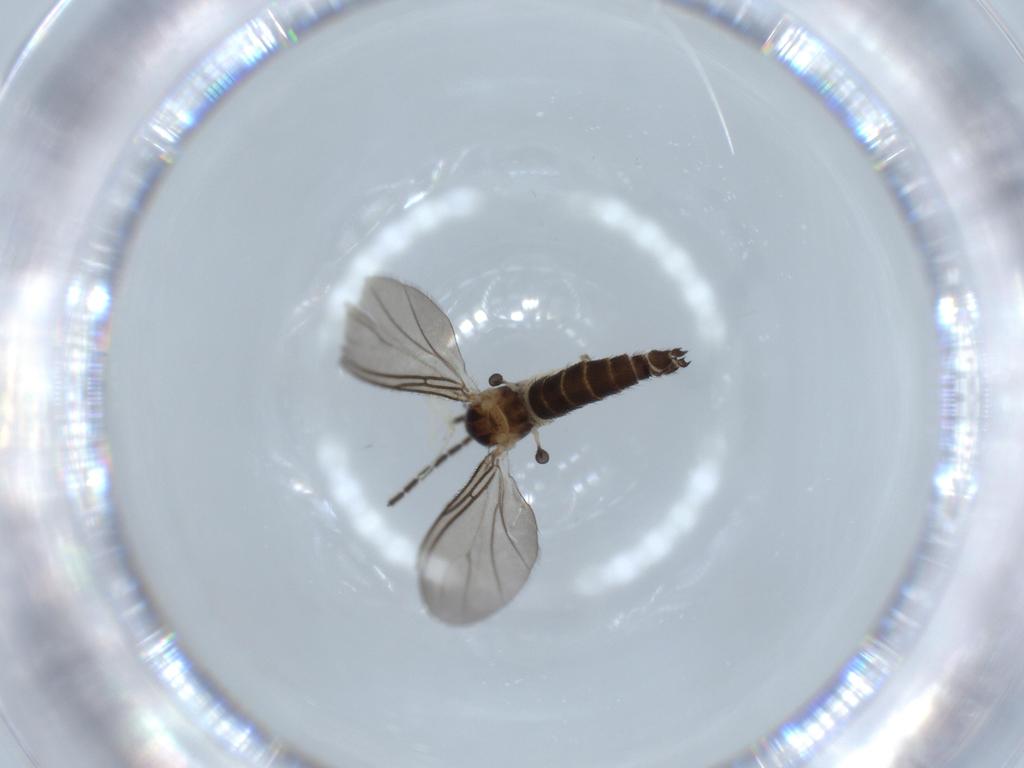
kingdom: Animalia
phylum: Arthropoda
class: Insecta
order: Diptera
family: Sciaridae
